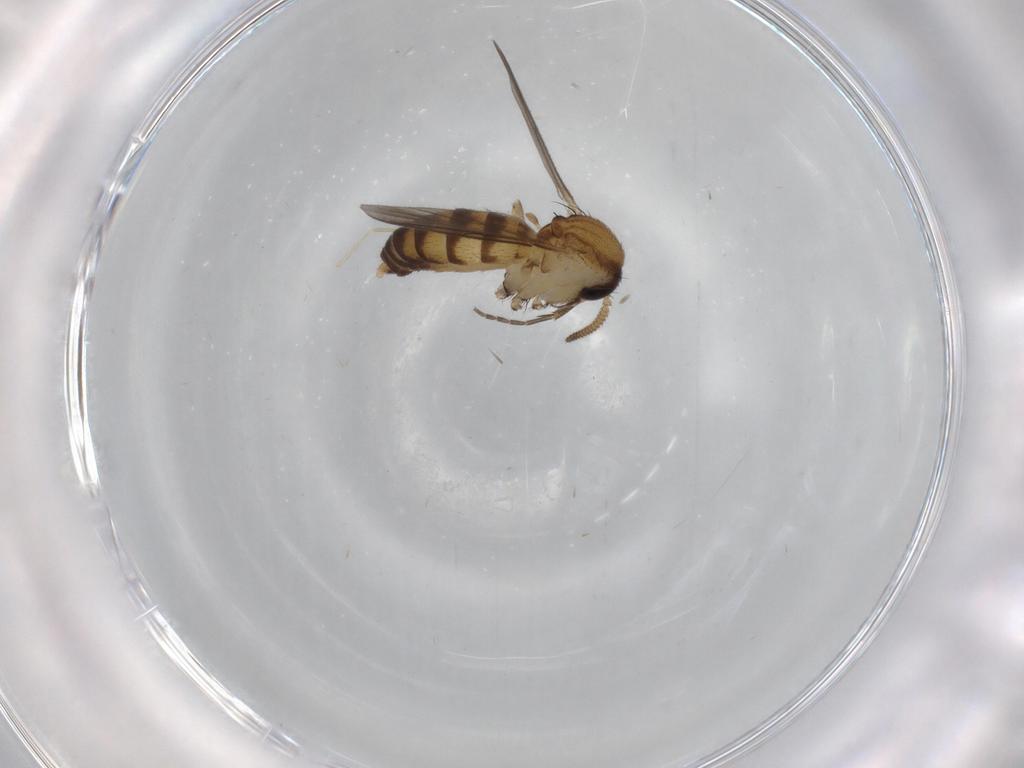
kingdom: Animalia
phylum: Arthropoda
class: Insecta
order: Diptera
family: Mycetophilidae
